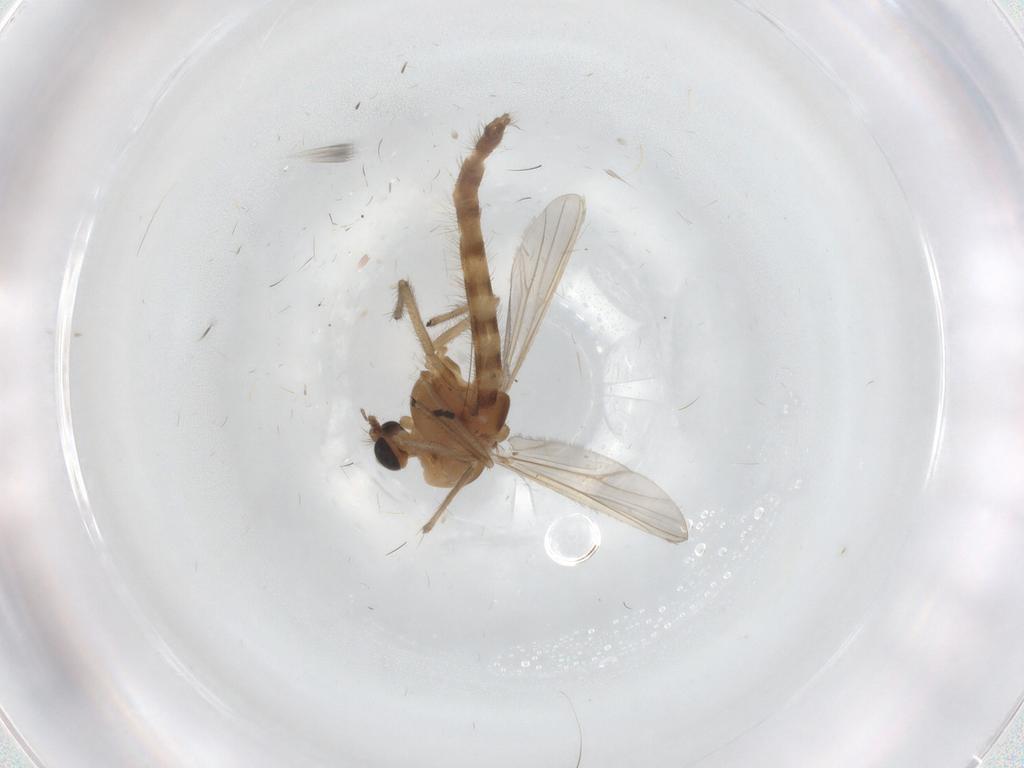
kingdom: Animalia
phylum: Arthropoda
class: Insecta
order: Diptera
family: Chironomidae
